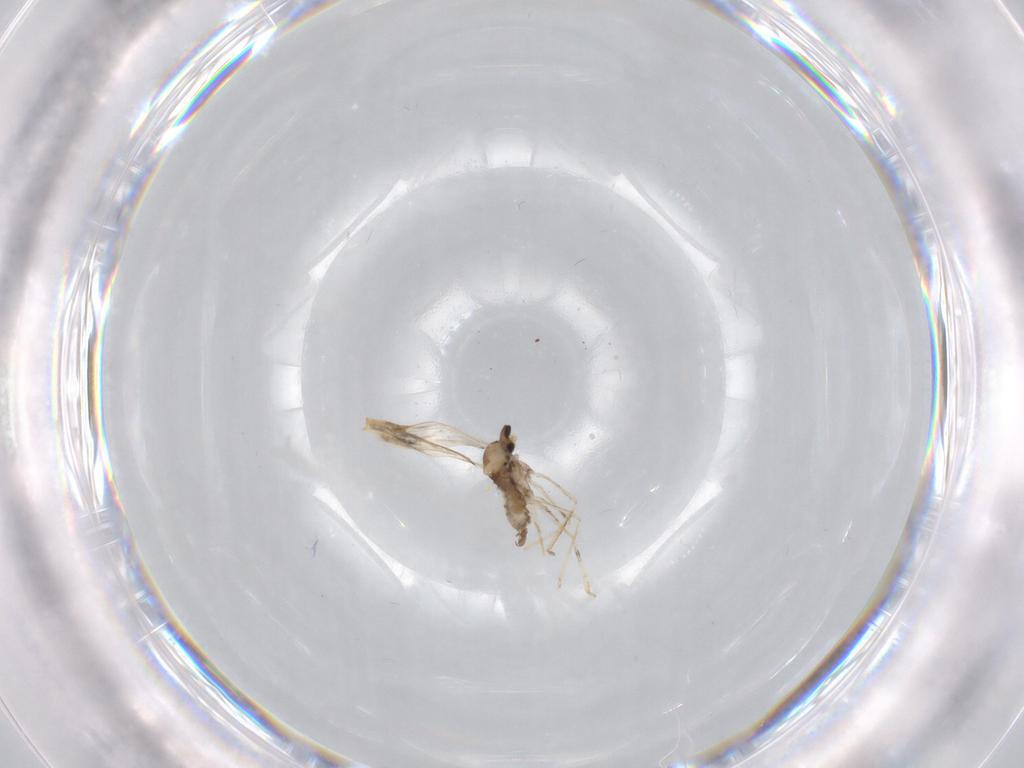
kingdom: Animalia
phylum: Arthropoda
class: Insecta
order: Diptera
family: Cecidomyiidae
